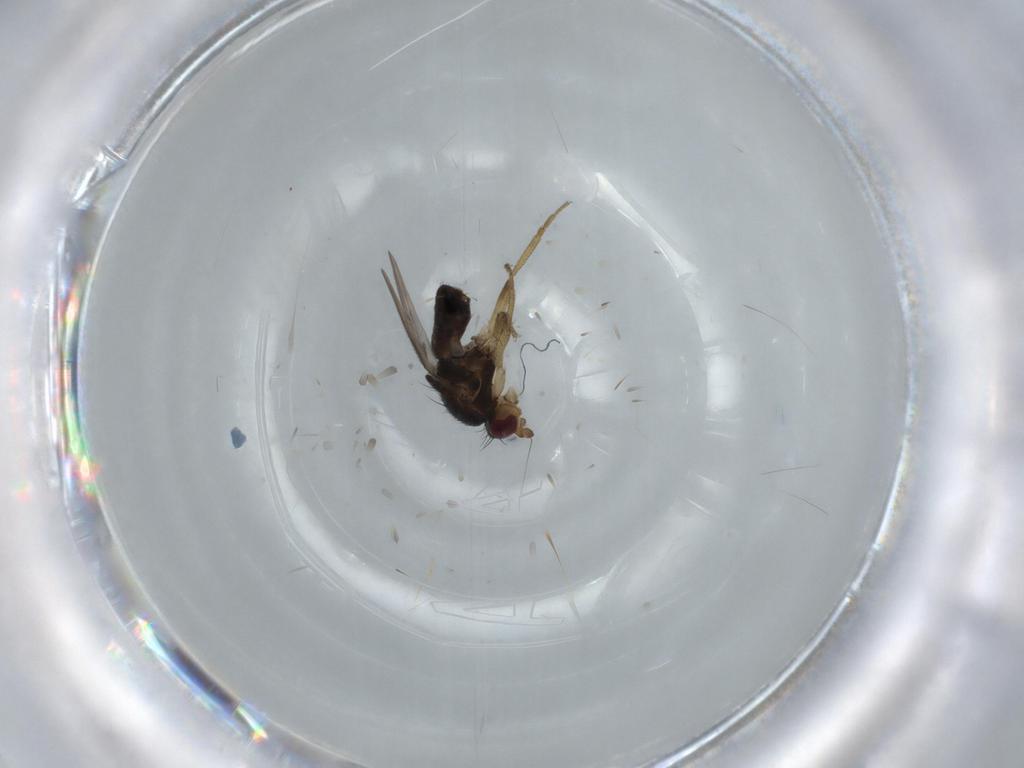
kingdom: Animalia
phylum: Arthropoda
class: Insecta
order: Diptera
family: Sphaeroceridae
